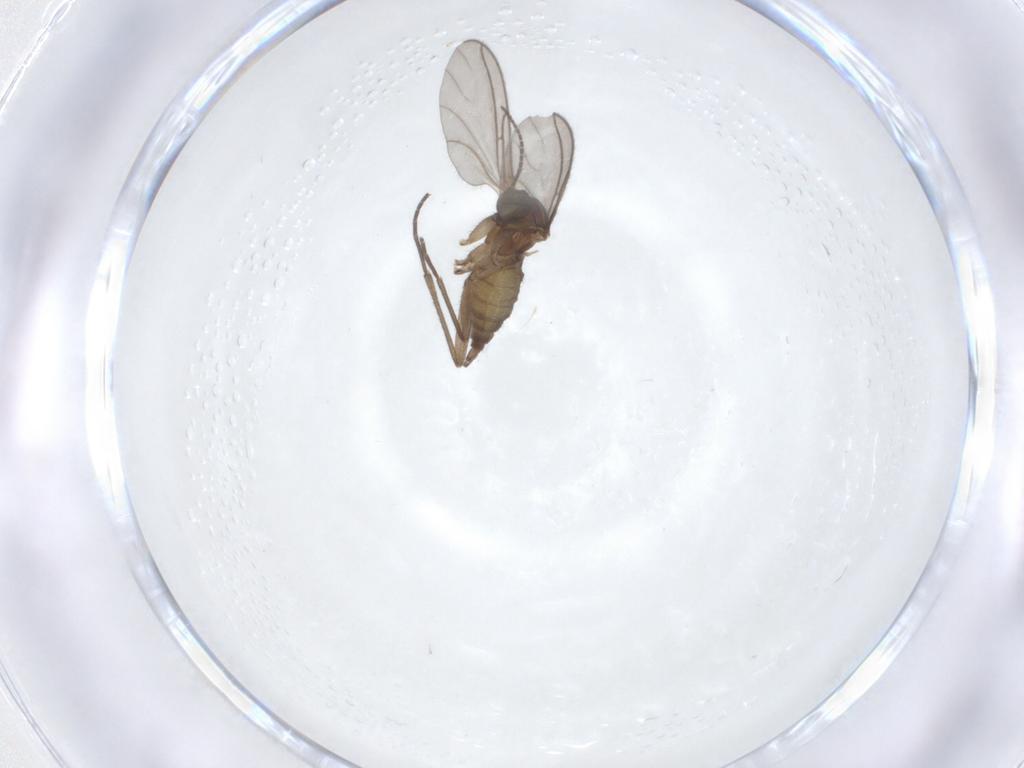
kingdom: Animalia
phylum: Arthropoda
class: Insecta
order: Diptera
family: Sciaridae
